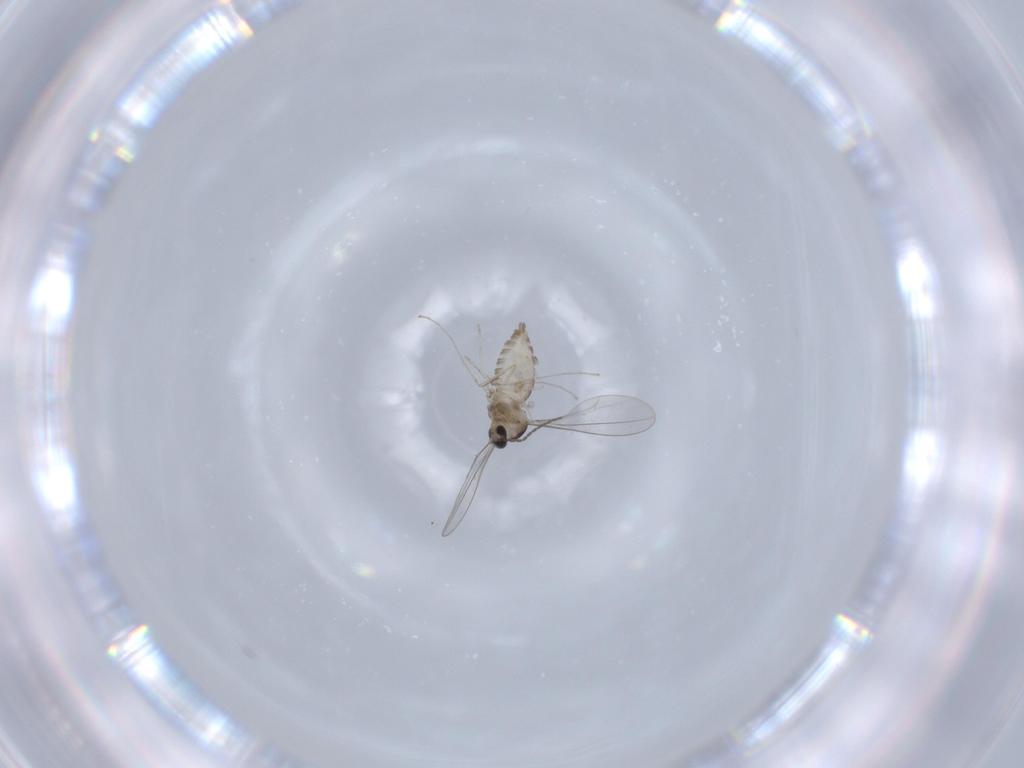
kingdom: Animalia
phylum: Arthropoda
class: Insecta
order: Diptera
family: Cecidomyiidae
